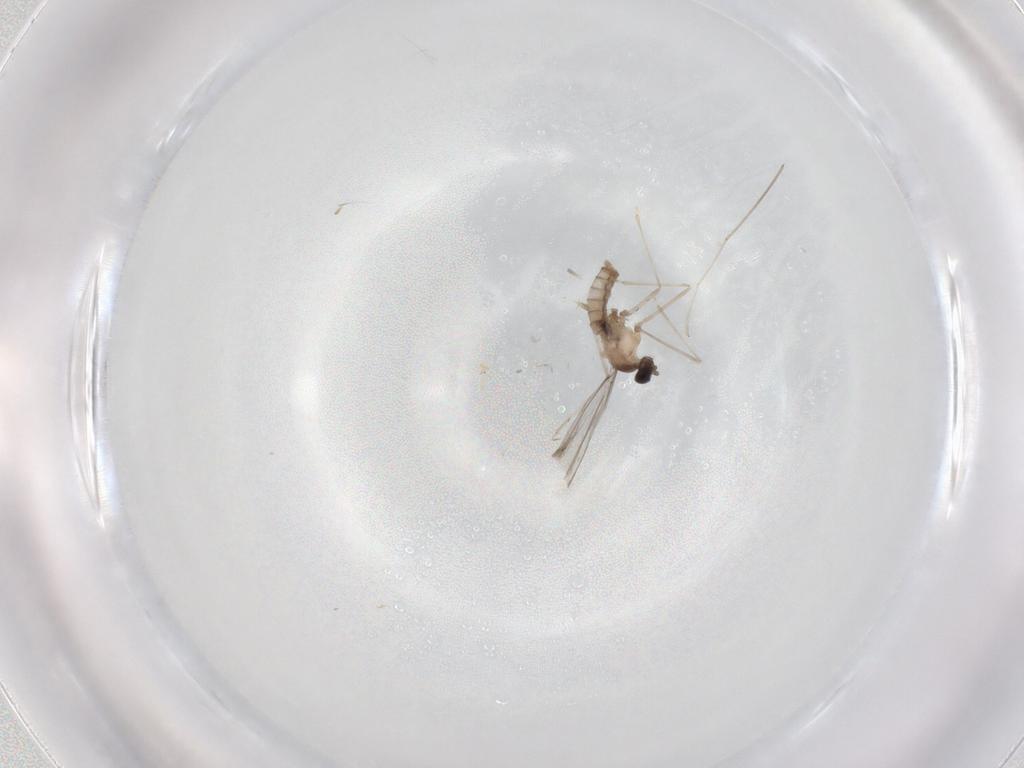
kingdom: Animalia
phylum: Arthropoda
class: Insecta
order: Diptera
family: Cecidomyiidae
